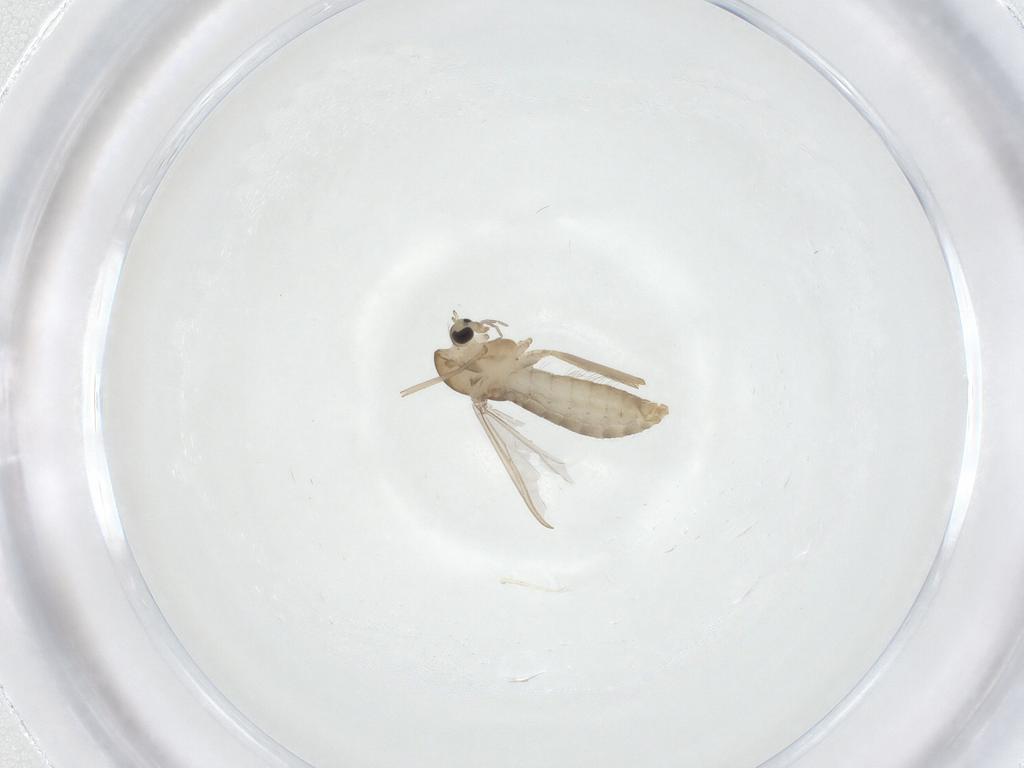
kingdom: Animalia
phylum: Arthropoda
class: Insecta
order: Diptera
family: Chironomidae
